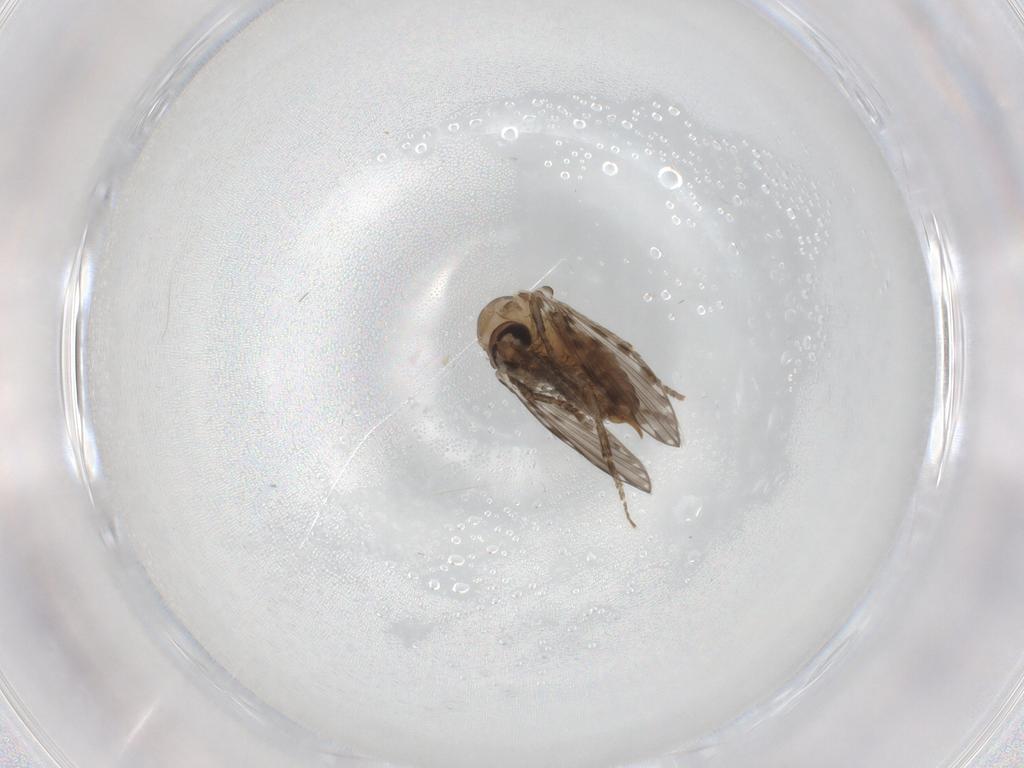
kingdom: Animalia
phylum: Arthropoda
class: Insecta
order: Diptera
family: Psychodidae
